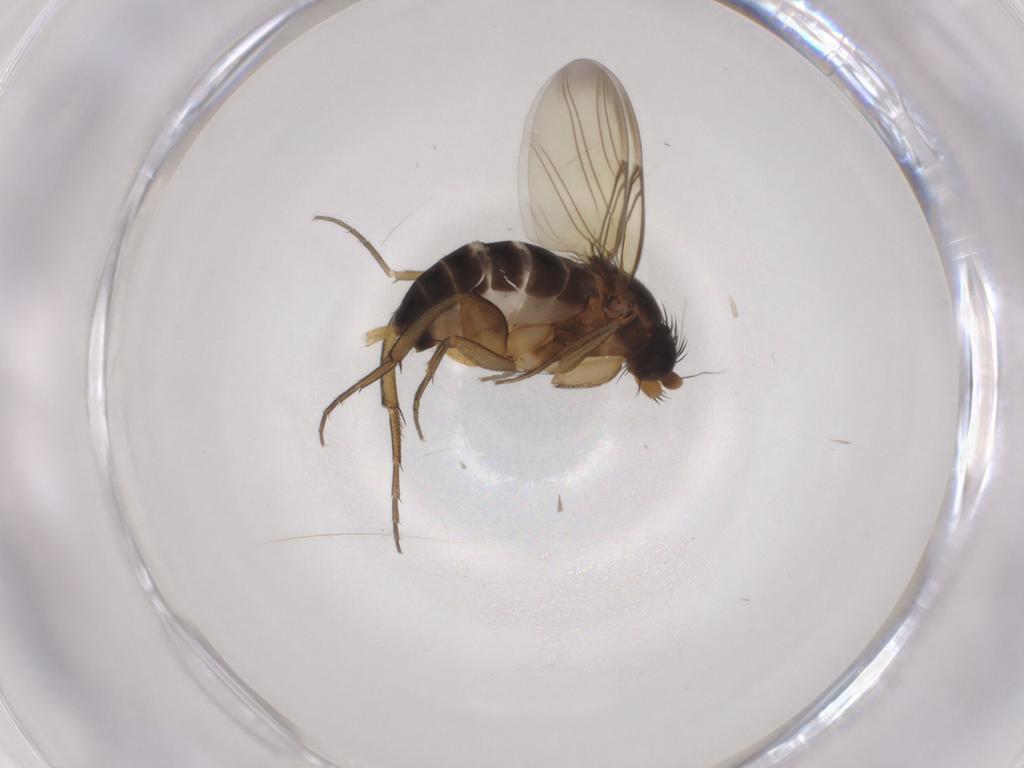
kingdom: Animalia
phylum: Arthropoda
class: Insecta
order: Diptera
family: Phoridae
